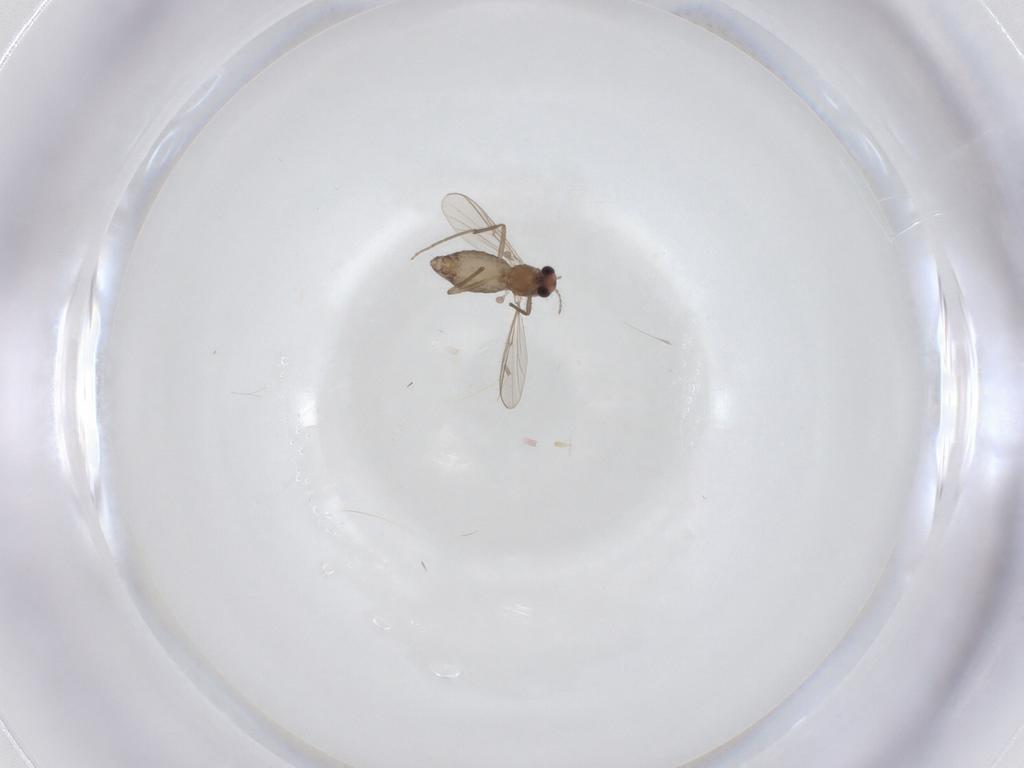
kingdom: Animalia
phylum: Arthropoda
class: Insecta
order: Diptera
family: Chironomidae
